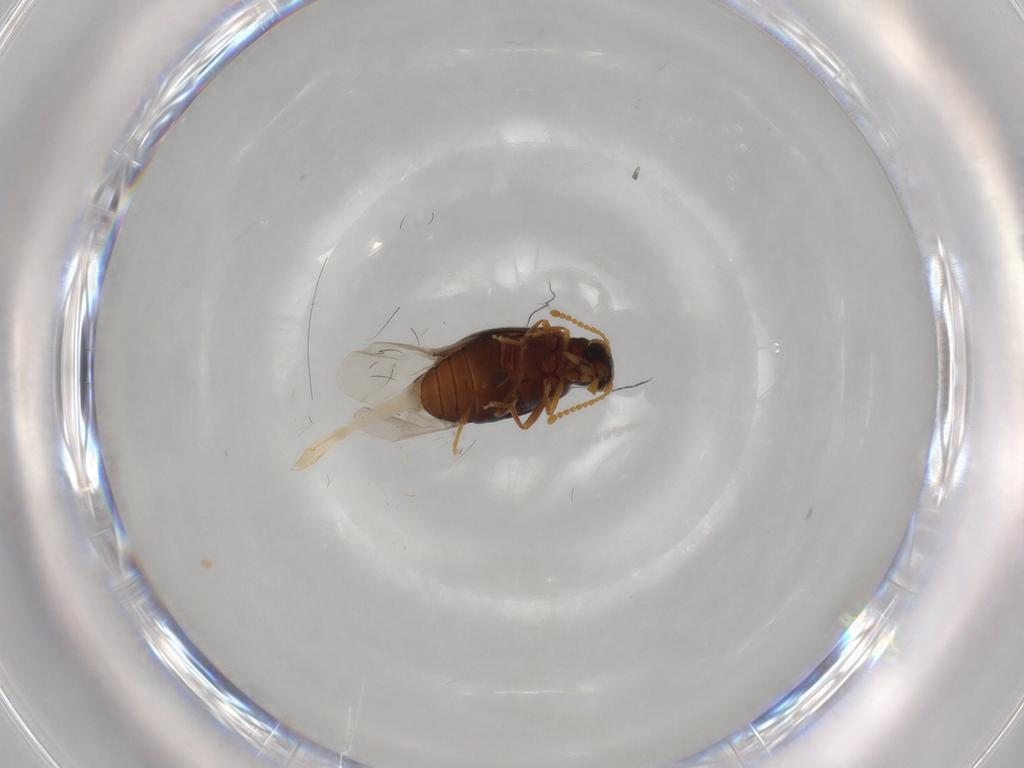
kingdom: Animalia
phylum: Arthropoda
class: Insecta
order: Coleoptera
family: Aderidae
